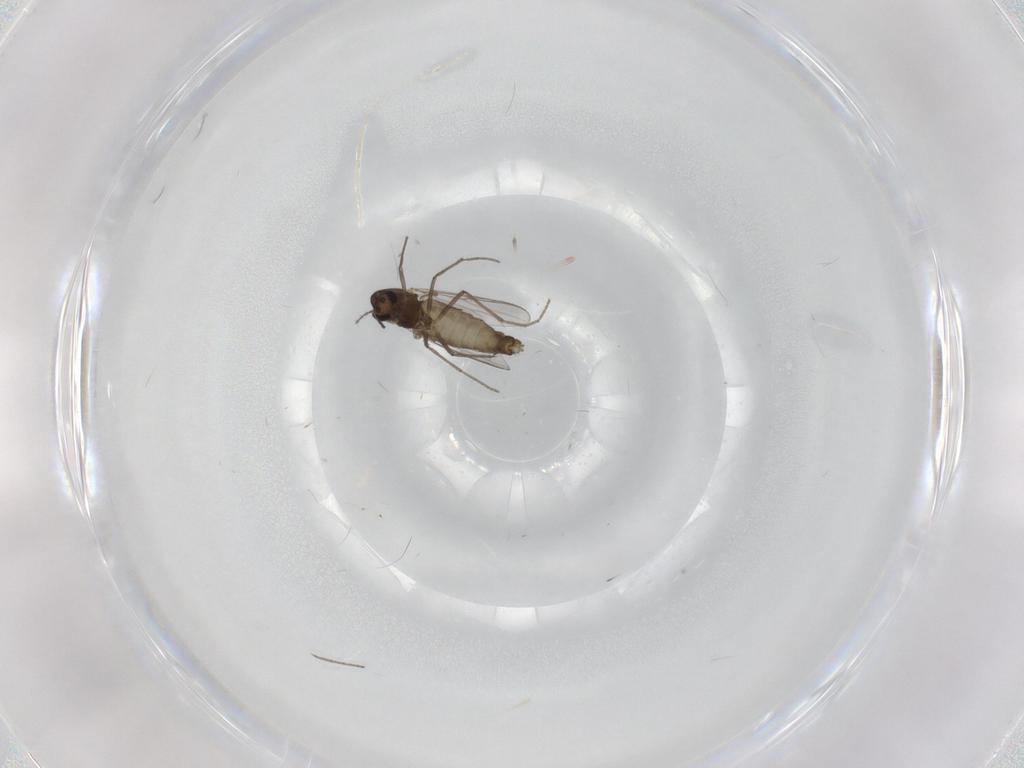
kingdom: Animalia
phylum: Arthropoda
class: Insecta
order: Diptera
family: Chironomidae
